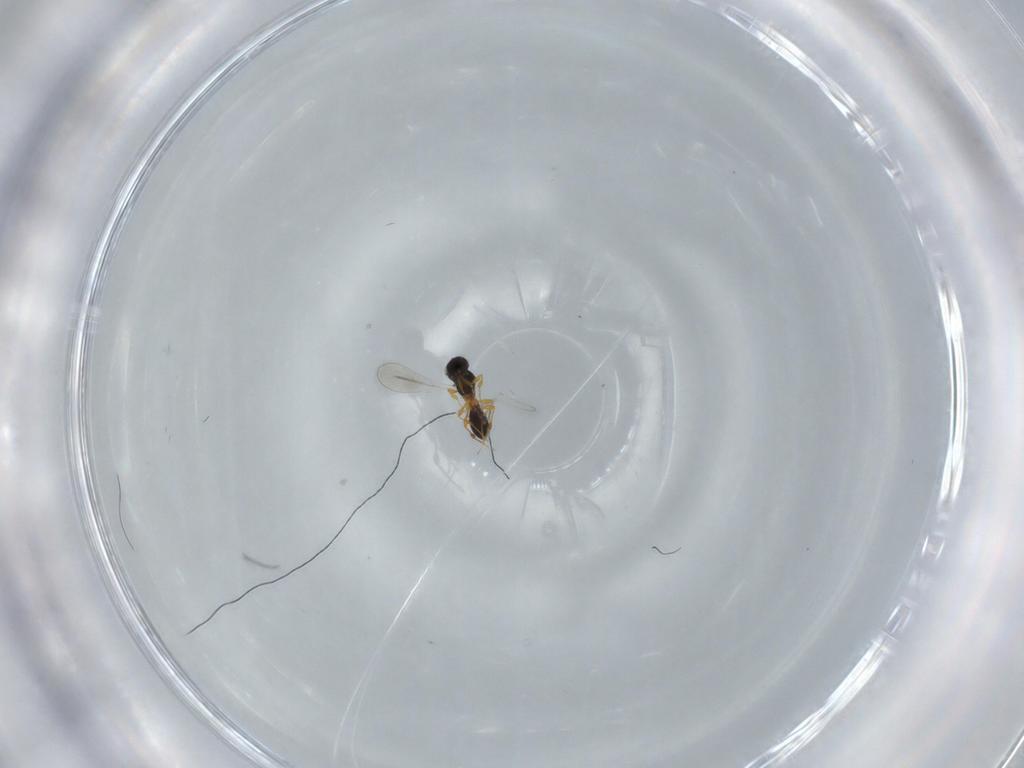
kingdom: Animalia
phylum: Arthropoda
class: Insecta
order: Hymenoptera
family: Platygastridae
